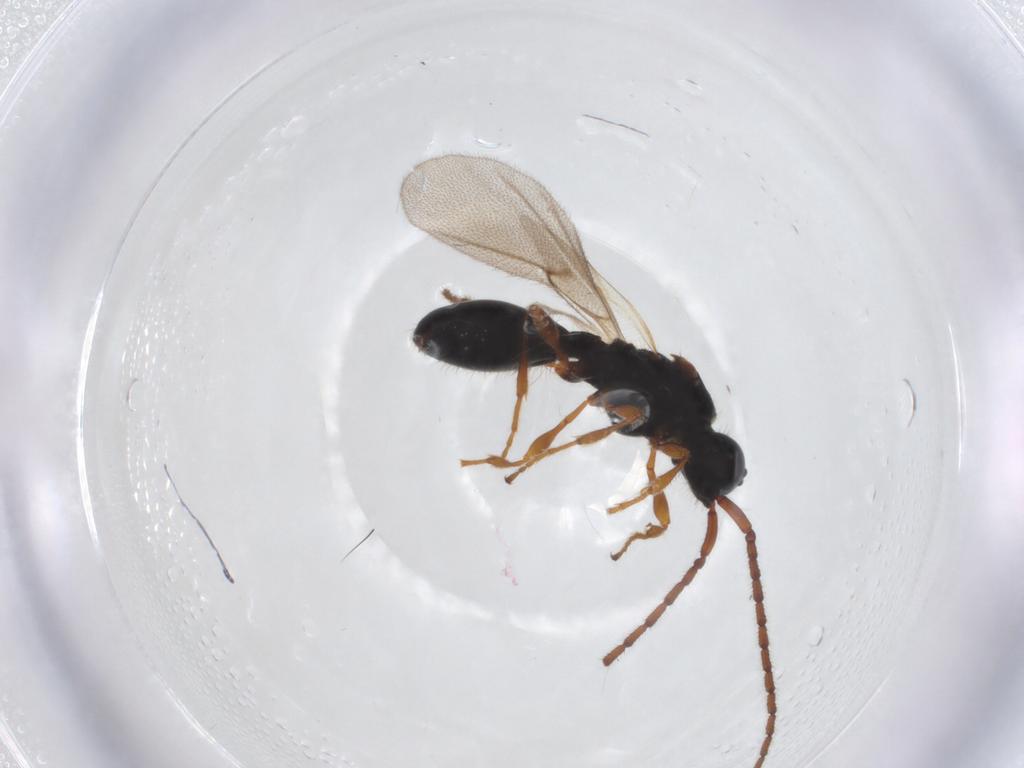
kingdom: Animalia
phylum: Arthropoda
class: Insecta
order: Hymenoptera
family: Diapriidae
